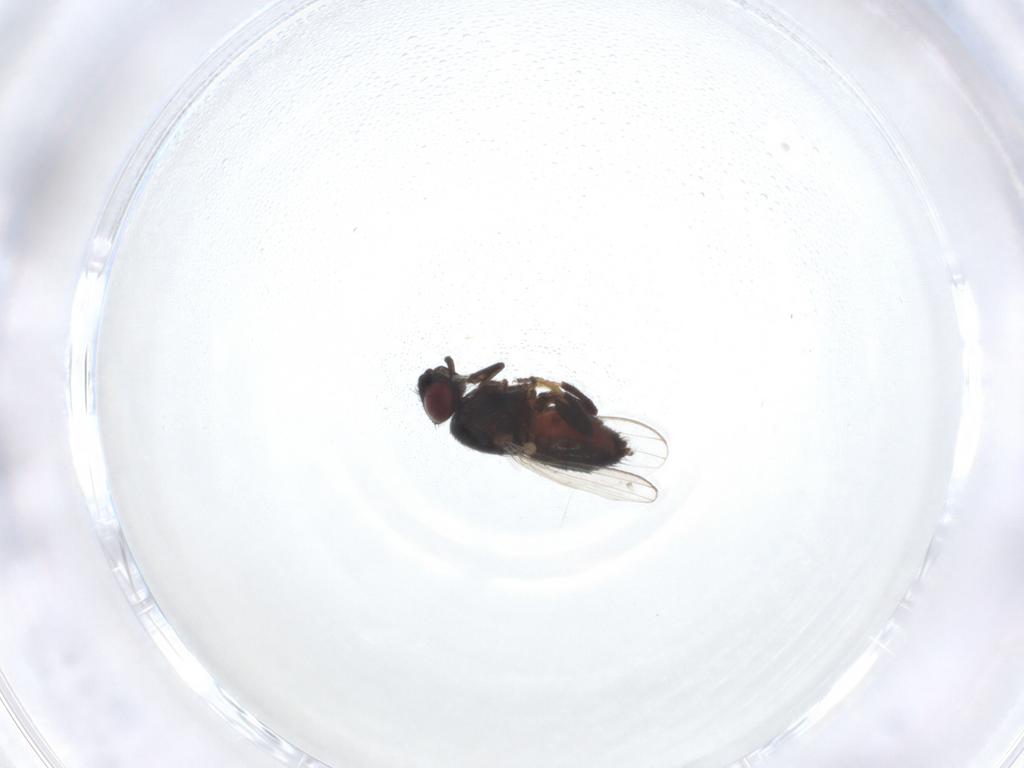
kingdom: Animalia
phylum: Arthropoda
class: Insecta
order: Diptera
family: Milichiidae
